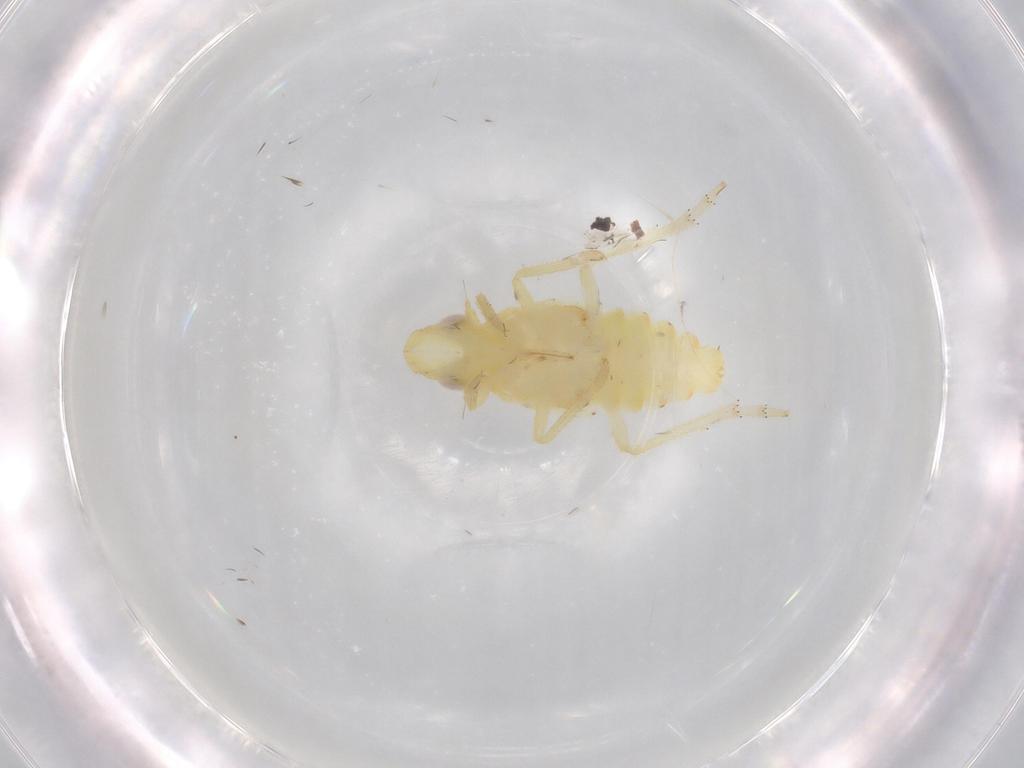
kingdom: Animalia
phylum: Arthropoda
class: Insecta
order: Hemiptera
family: Tropiduchidae
